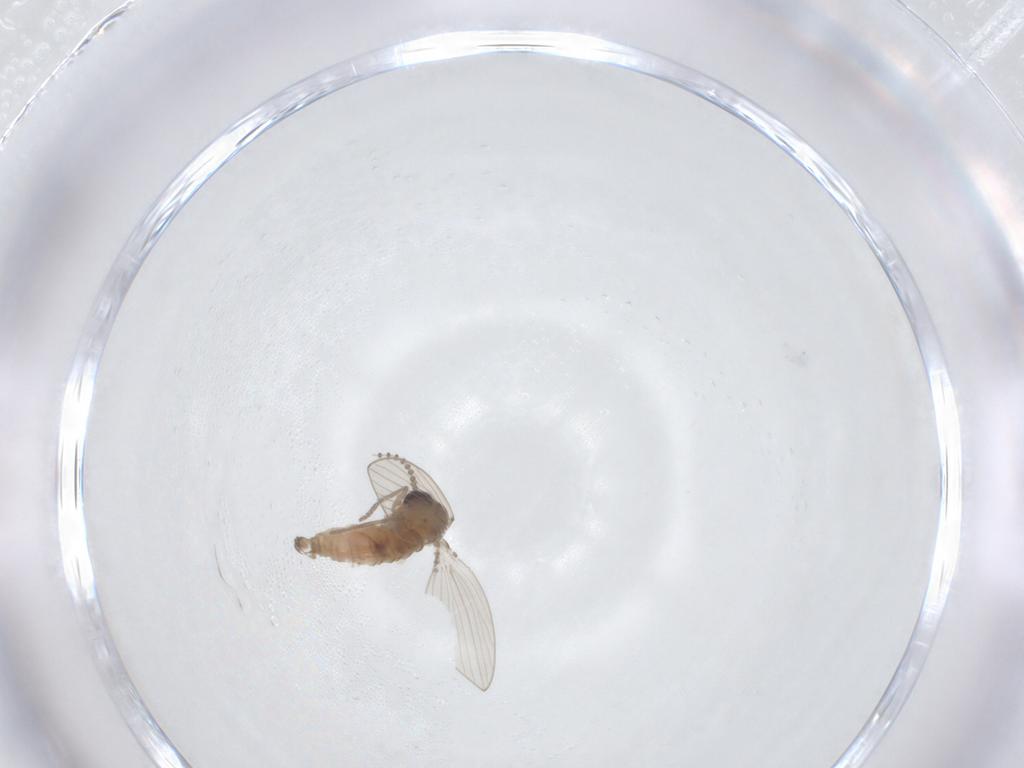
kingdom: Animalia
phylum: Arthropoda
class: Insecta
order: Diptera
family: Psychodidae
